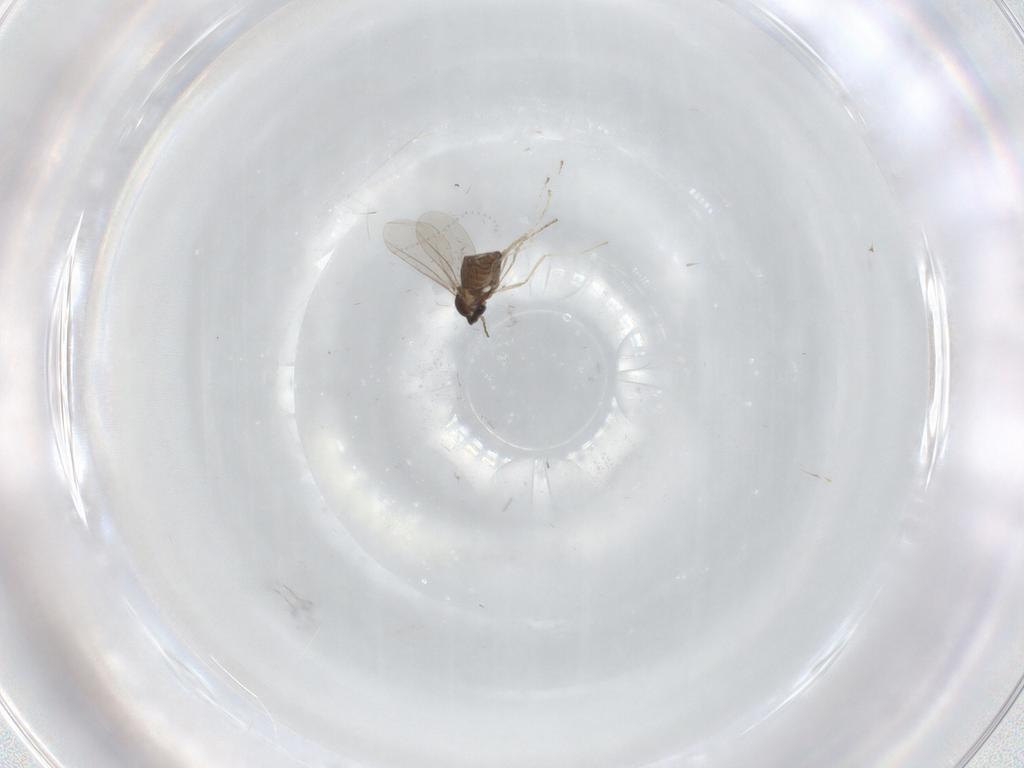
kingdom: Animalia
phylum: Arthropoda
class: Insecta
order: Diptera
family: Cecidomyiidae
